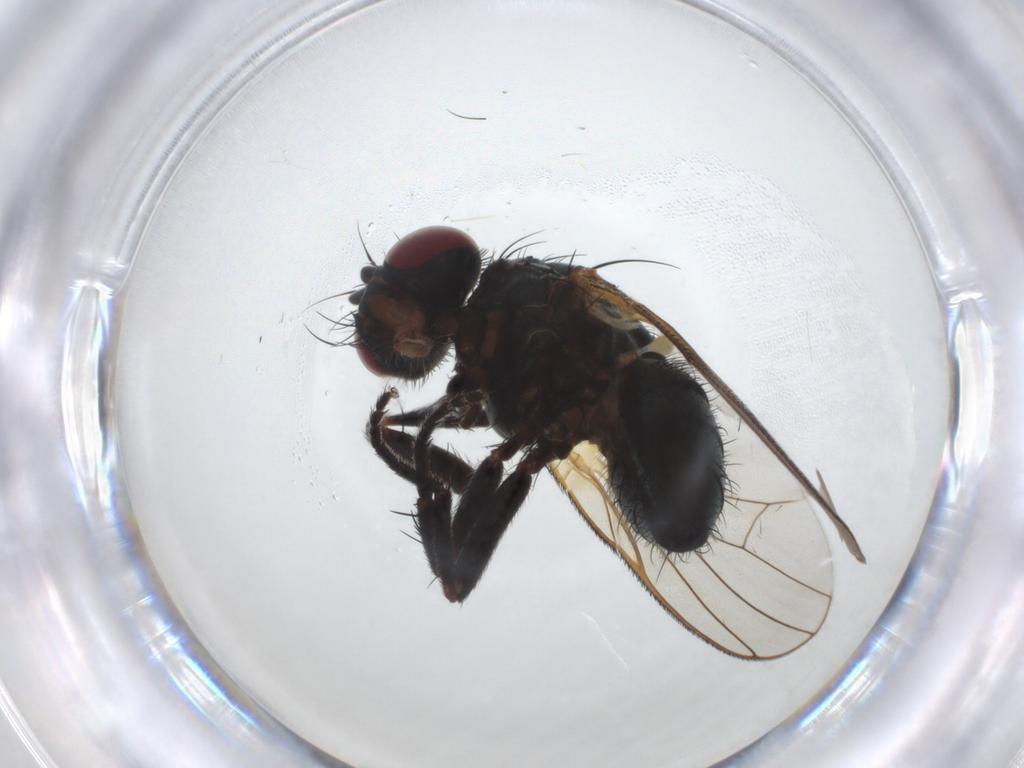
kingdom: Animalia
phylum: Arthropoda
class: Insecta
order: Diptera
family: Fannia
